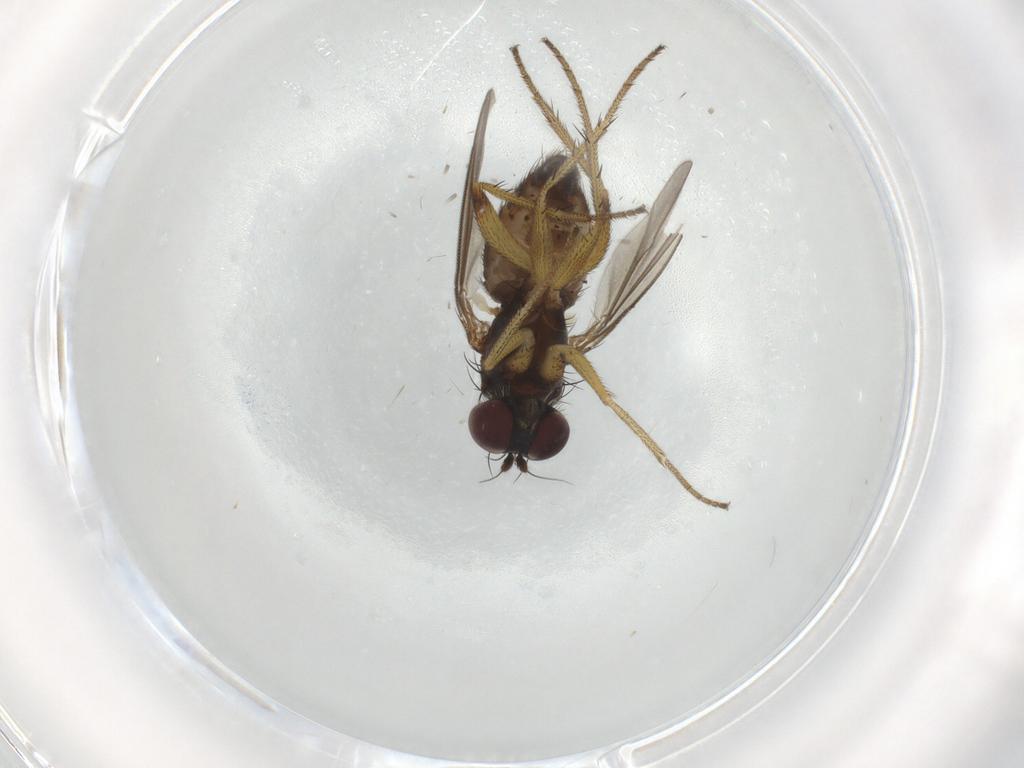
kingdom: Animalia
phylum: Arthropoda
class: Insecta
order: Diptera
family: Dolichopodidae
